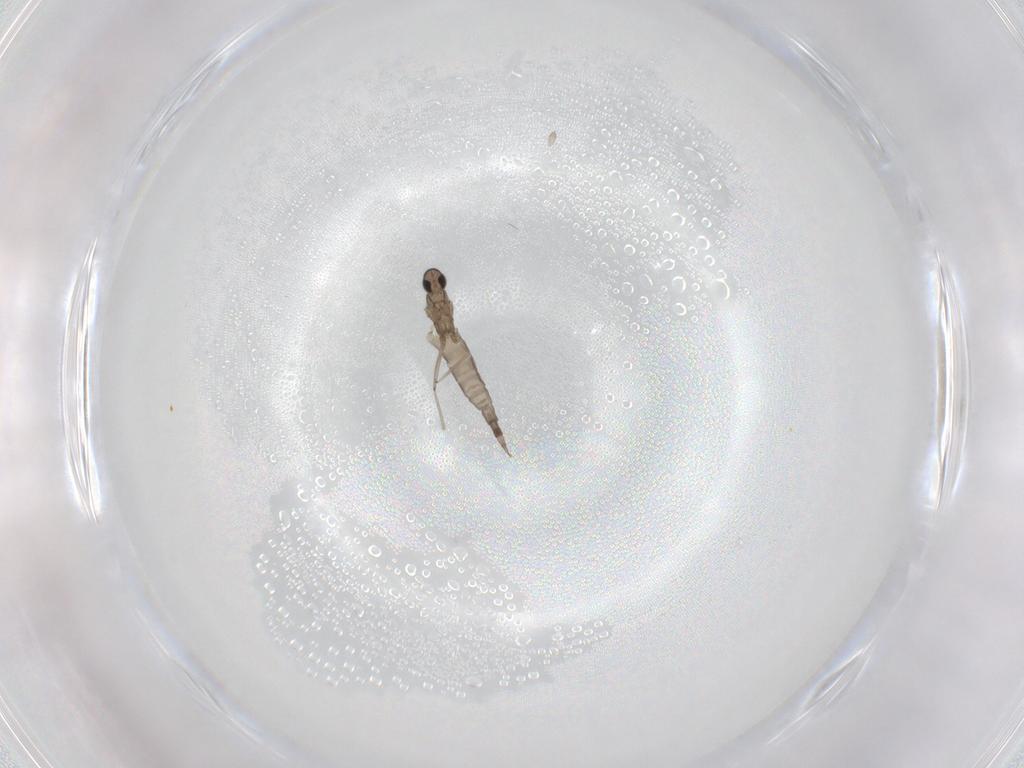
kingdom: Animalia
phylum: Arthropoda
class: Insecta
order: Diptera
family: Cecidomyiidae
